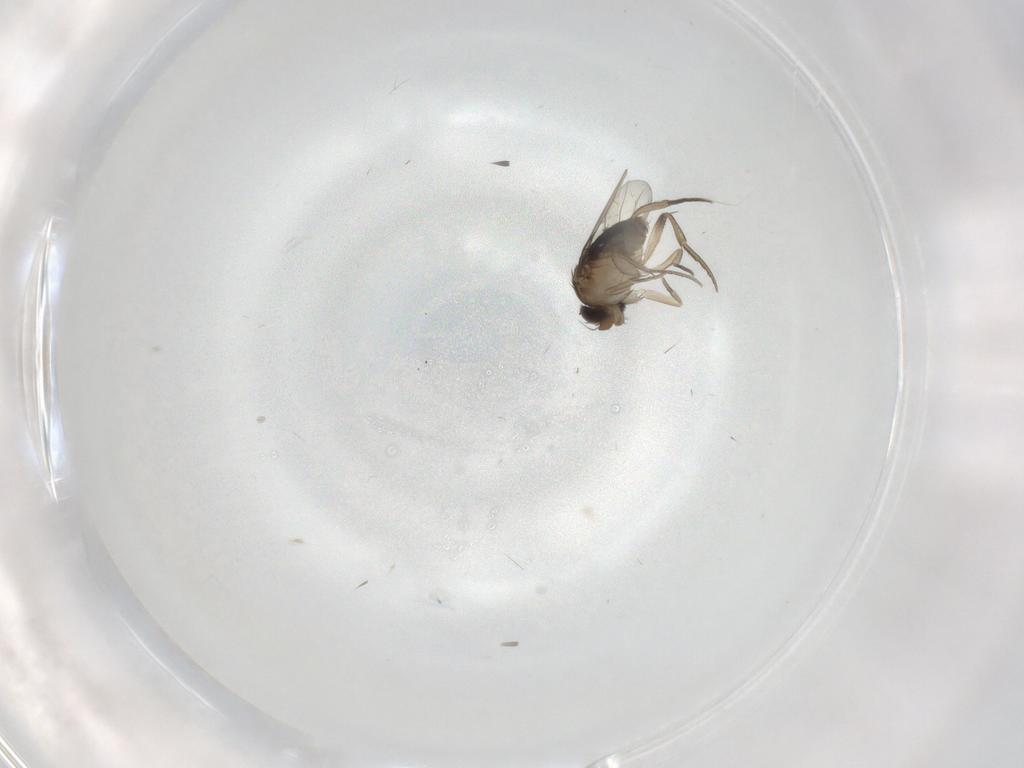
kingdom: Animalia
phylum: Arthropoda
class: Insecta
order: Diptera
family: Phoridae
